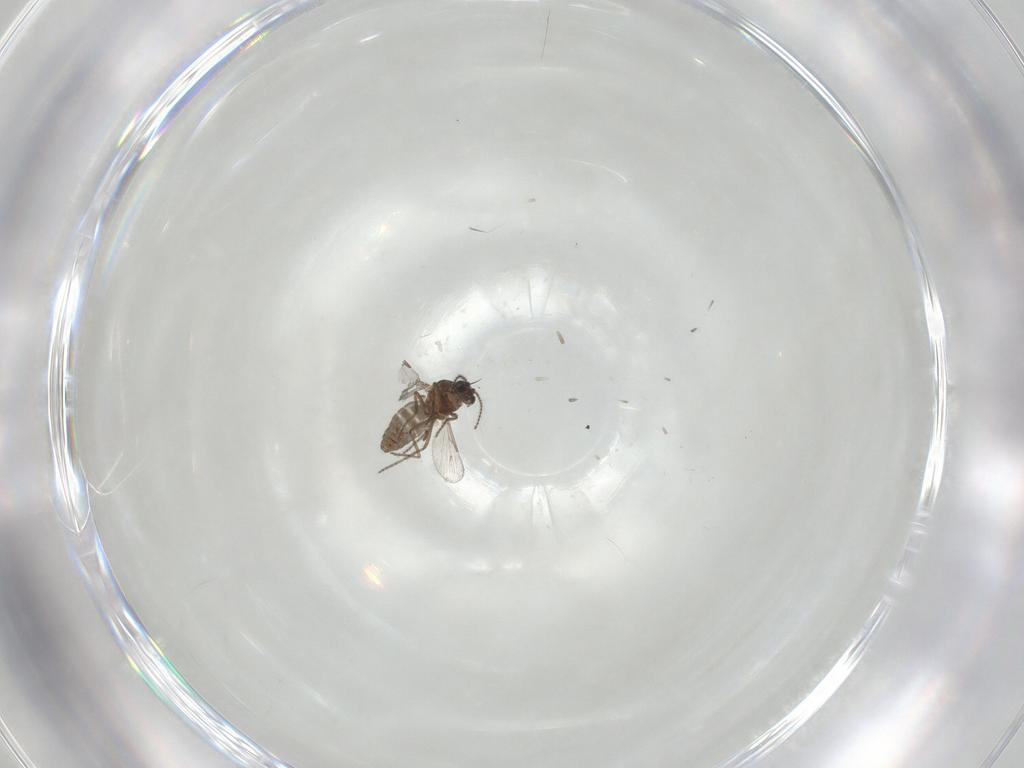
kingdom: Animalia
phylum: Arthropoda
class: Insecta
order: Diptera
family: Ceratopogonidae
